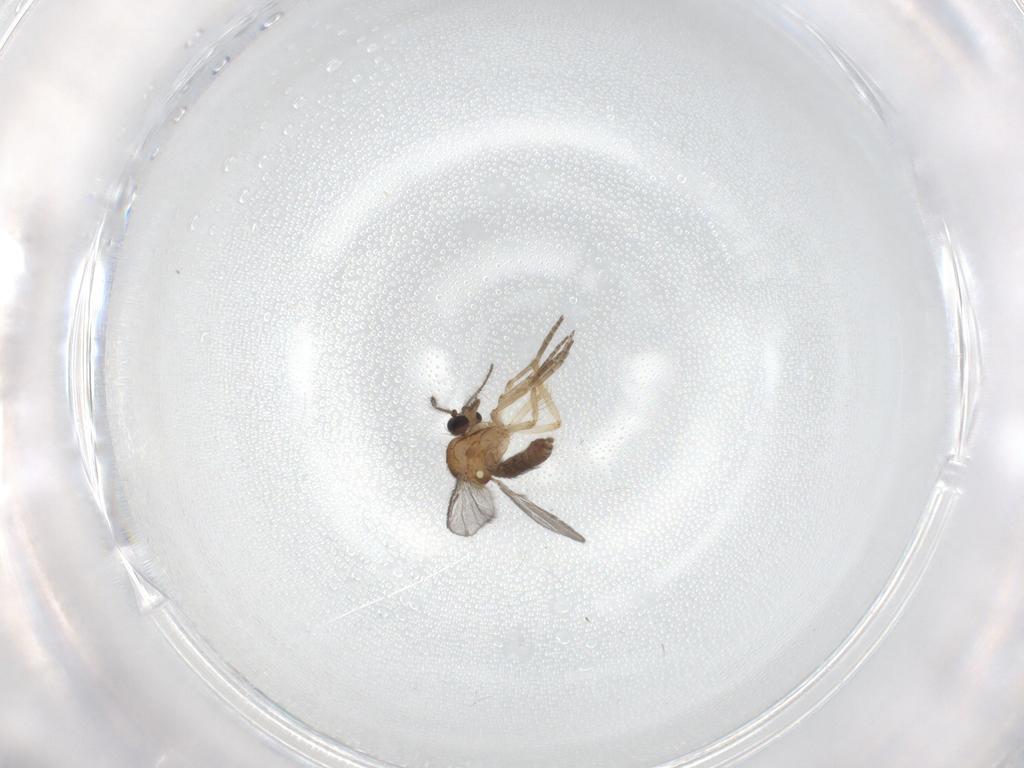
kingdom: Animalia
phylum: Arthropoda
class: Insecta
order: Diptera
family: Ceratopogonidae
